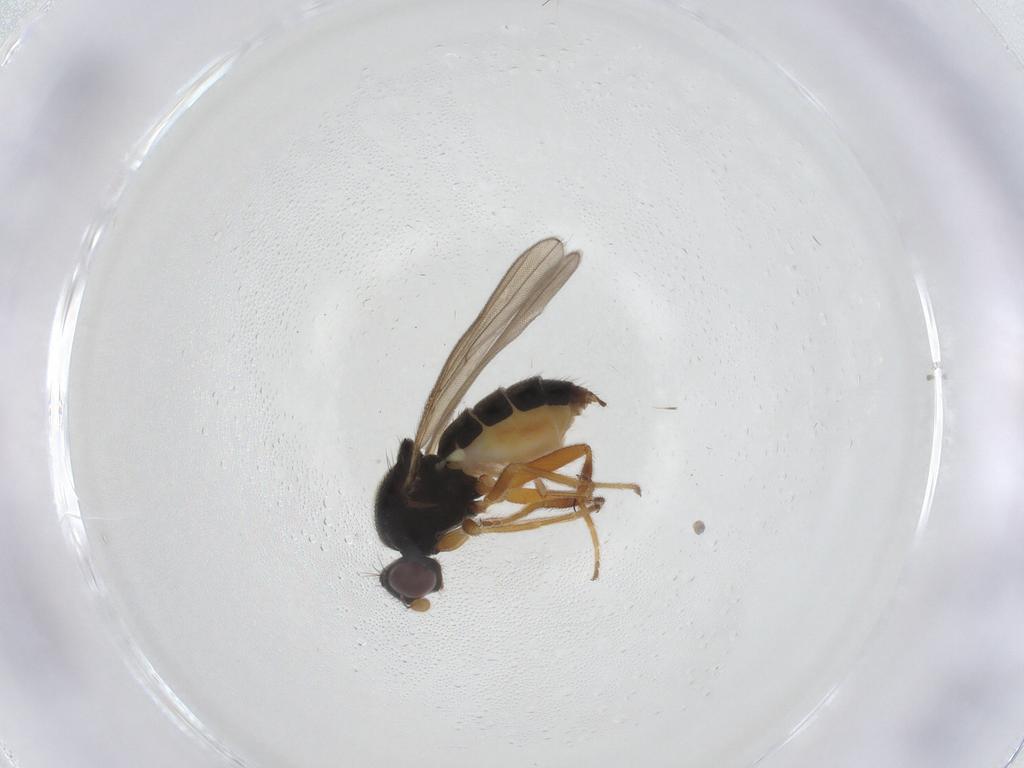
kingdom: Animalia
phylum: Arthropoda
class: Insecta
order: Diptera
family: Chloropidae
